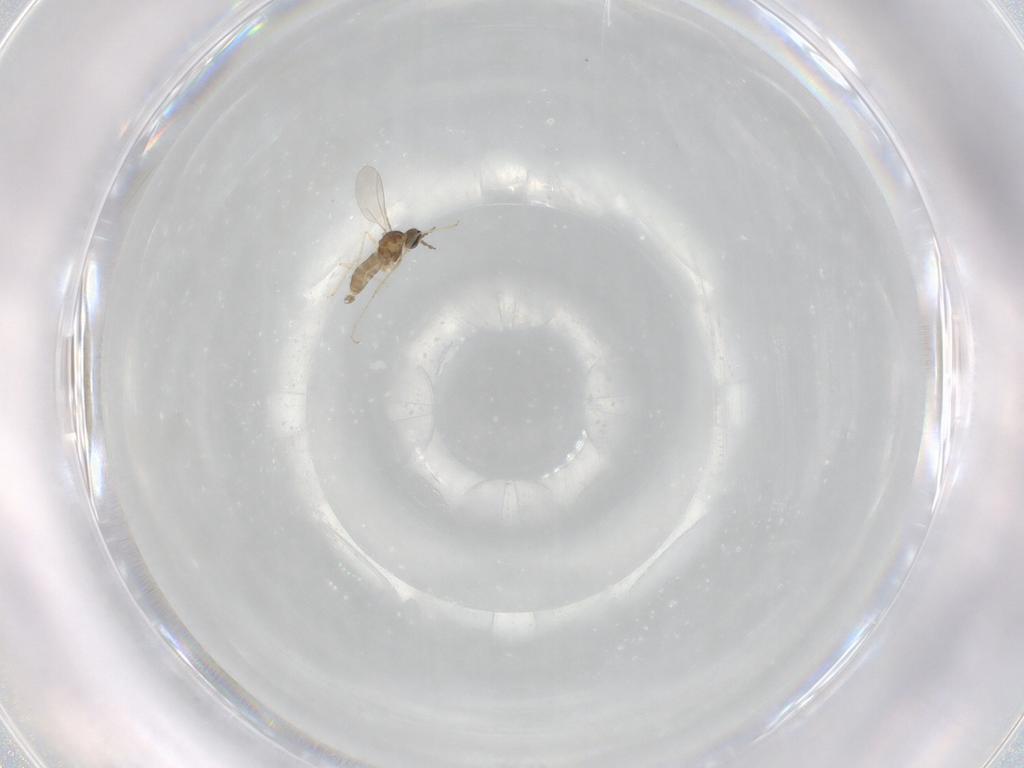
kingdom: Animalia
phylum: Arthropoda
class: Insecta
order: Diptera
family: Cecidomyiidae
